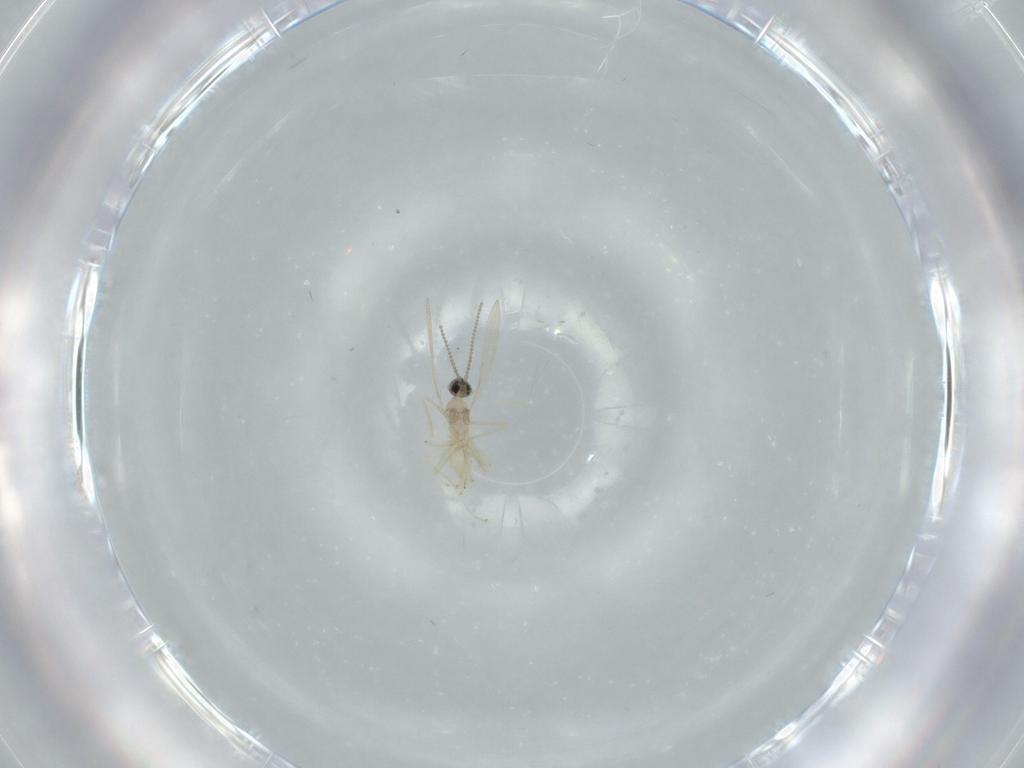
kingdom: Animalia
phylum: Arthropoda
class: Insecta
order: Diptera
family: Cecidomyiidae
